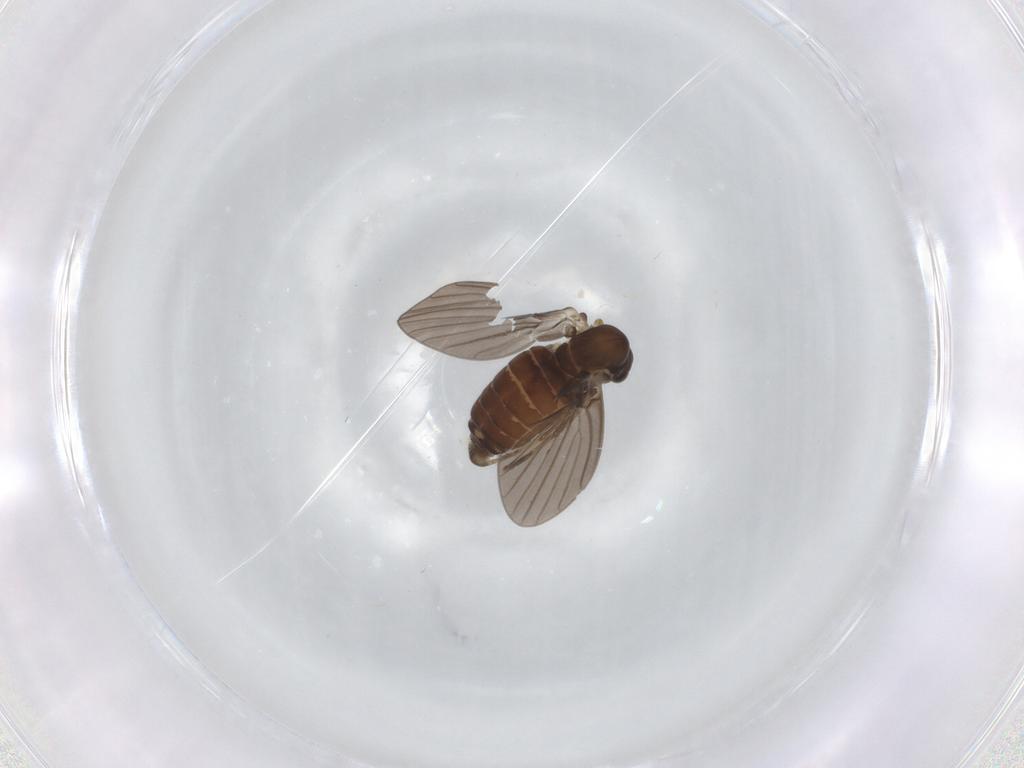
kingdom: Animalia
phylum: Arthropoda
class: Insecta
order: Diptera
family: Psychodidae
